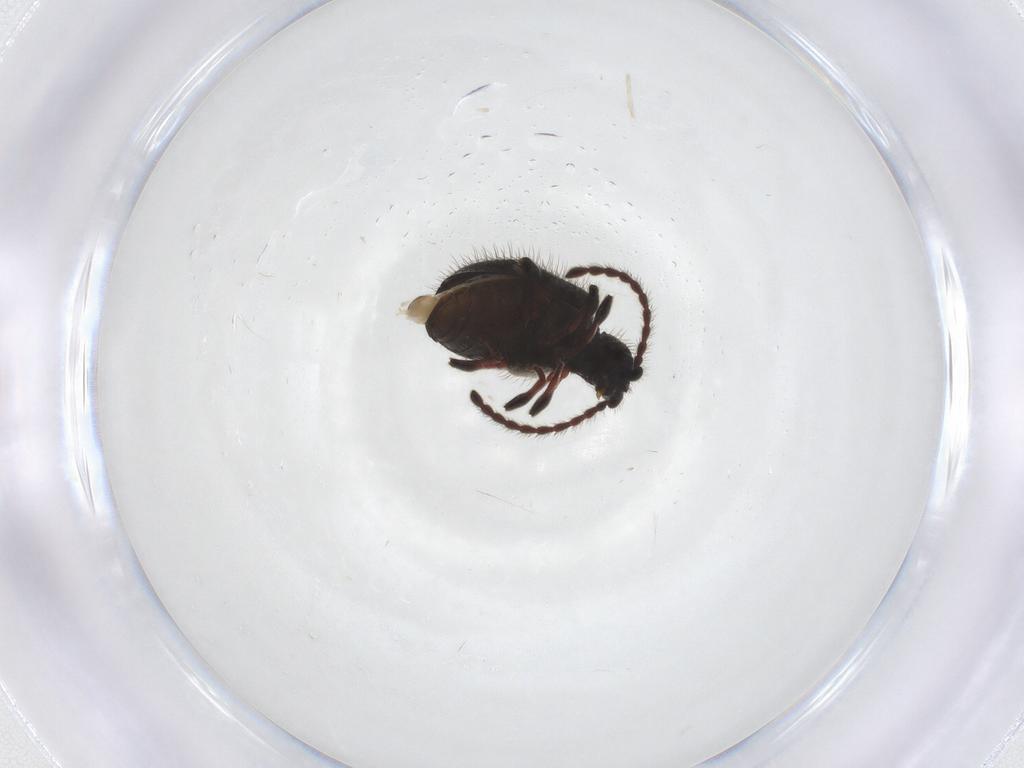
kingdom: Animalia
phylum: Arthropoda
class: Insecta
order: Coleoptera
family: Ptinidae
